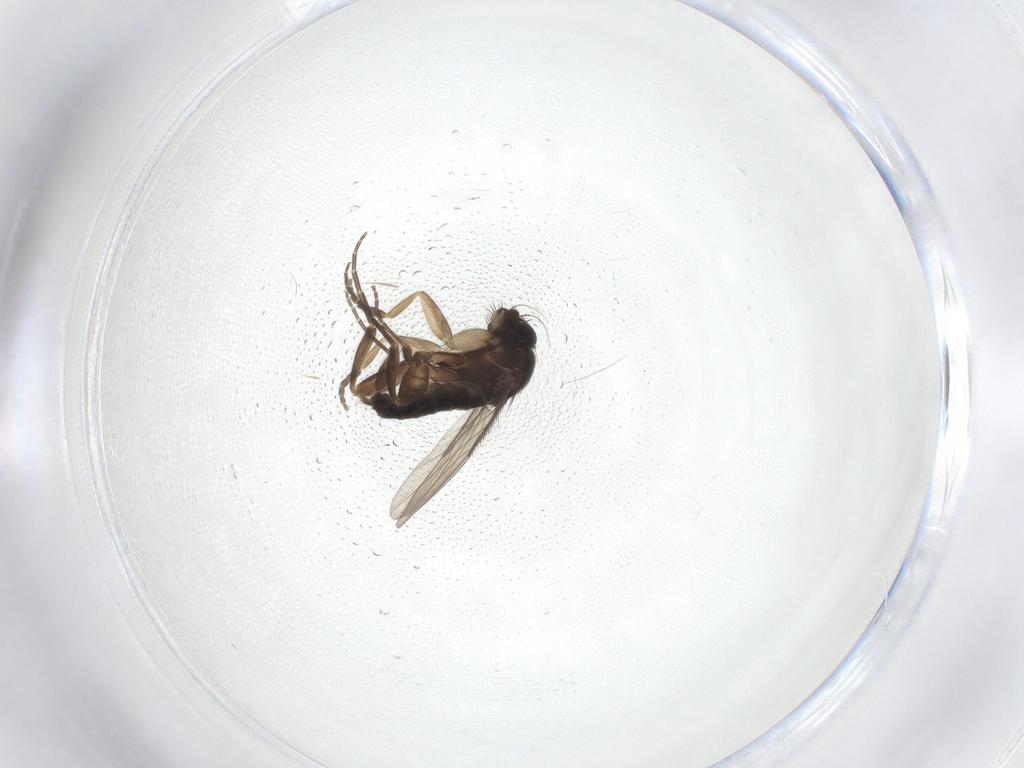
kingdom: Animalia
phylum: Arthropoda
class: Insecta
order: Diptera
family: Phoridae
